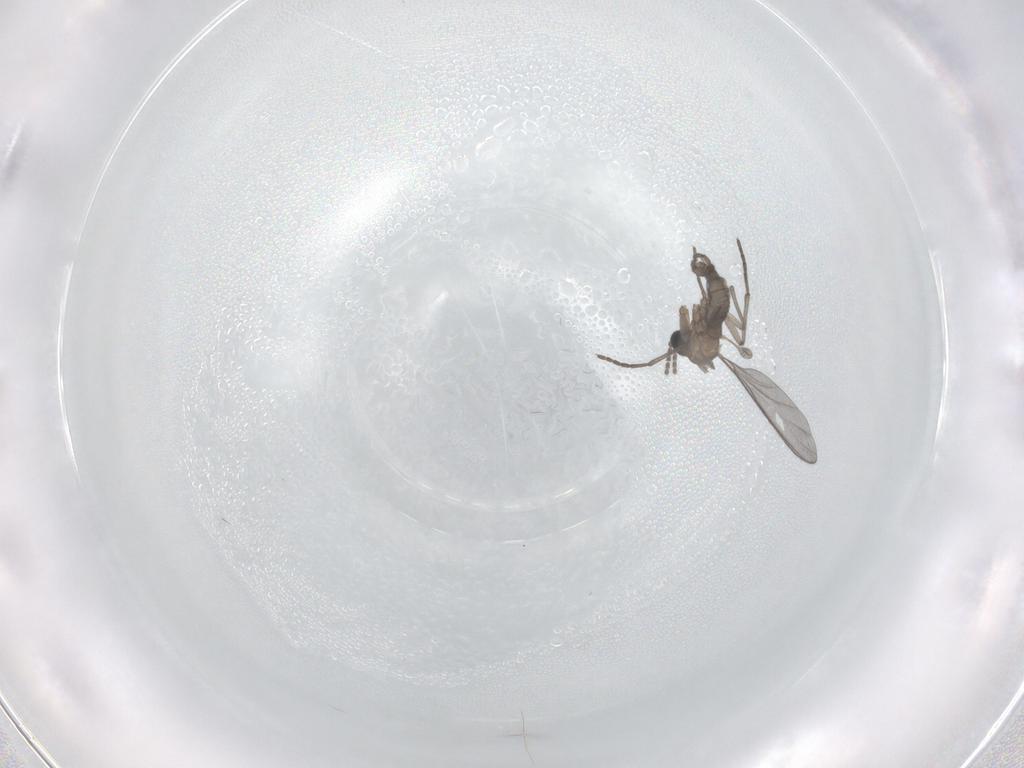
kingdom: Animalia
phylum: Arthropoda
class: Insecta
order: Diptera
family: Sciaridae
